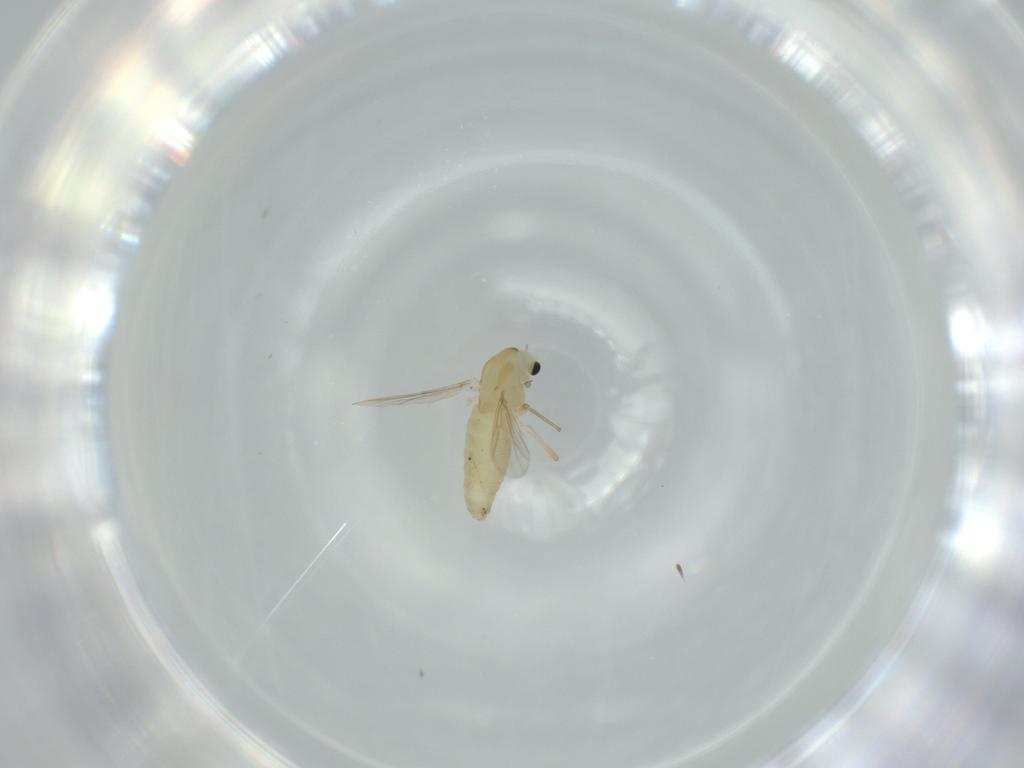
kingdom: Animalia
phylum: Arthropoda
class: Insecta
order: Diptera
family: Chironomidae
